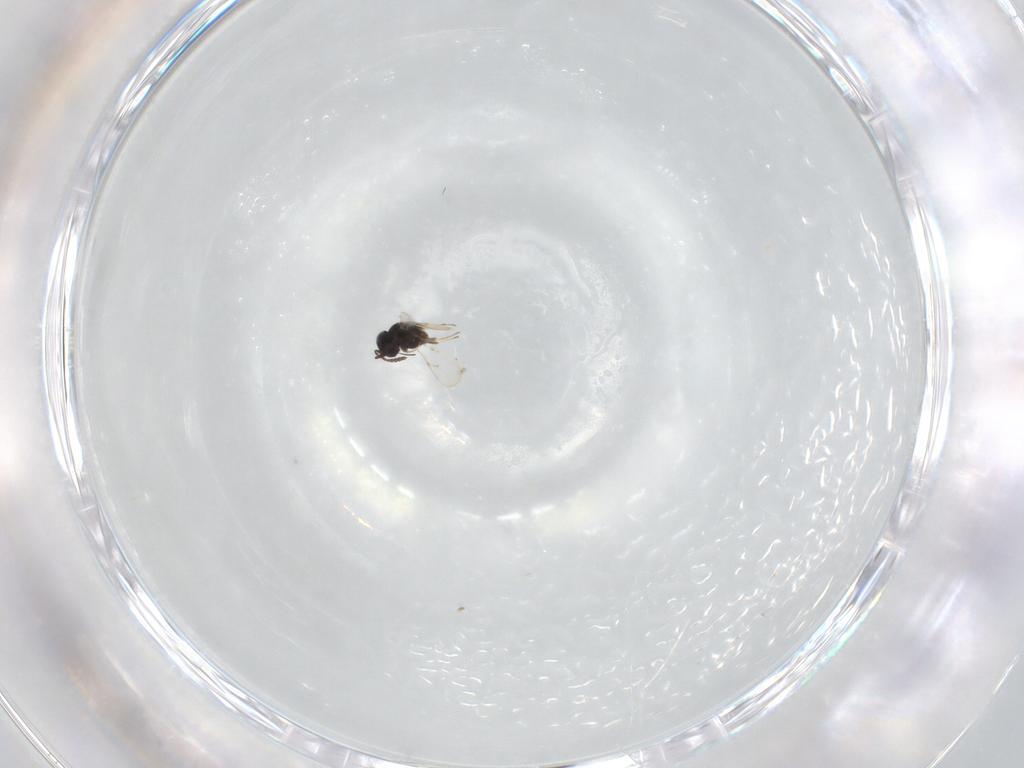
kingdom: Animalia
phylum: Arthropoda
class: Insecta
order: Hymenoptera
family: Scelionidae
